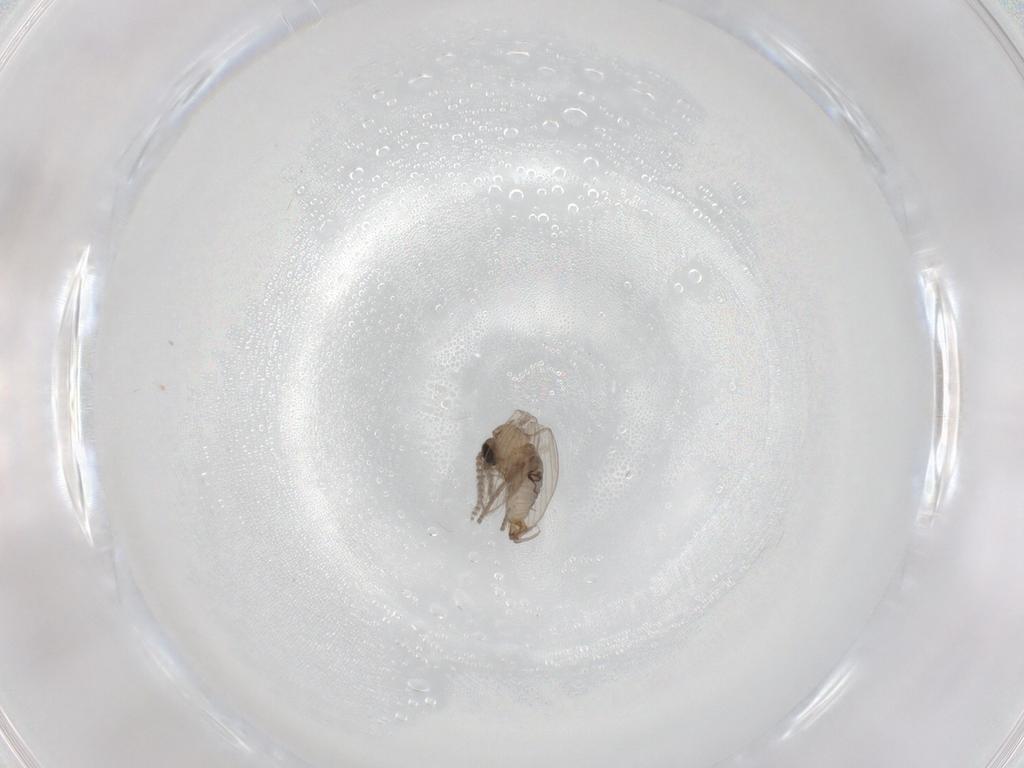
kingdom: Animalia
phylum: Arthropoda
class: Insecta
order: Diptera
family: Psychodidae
